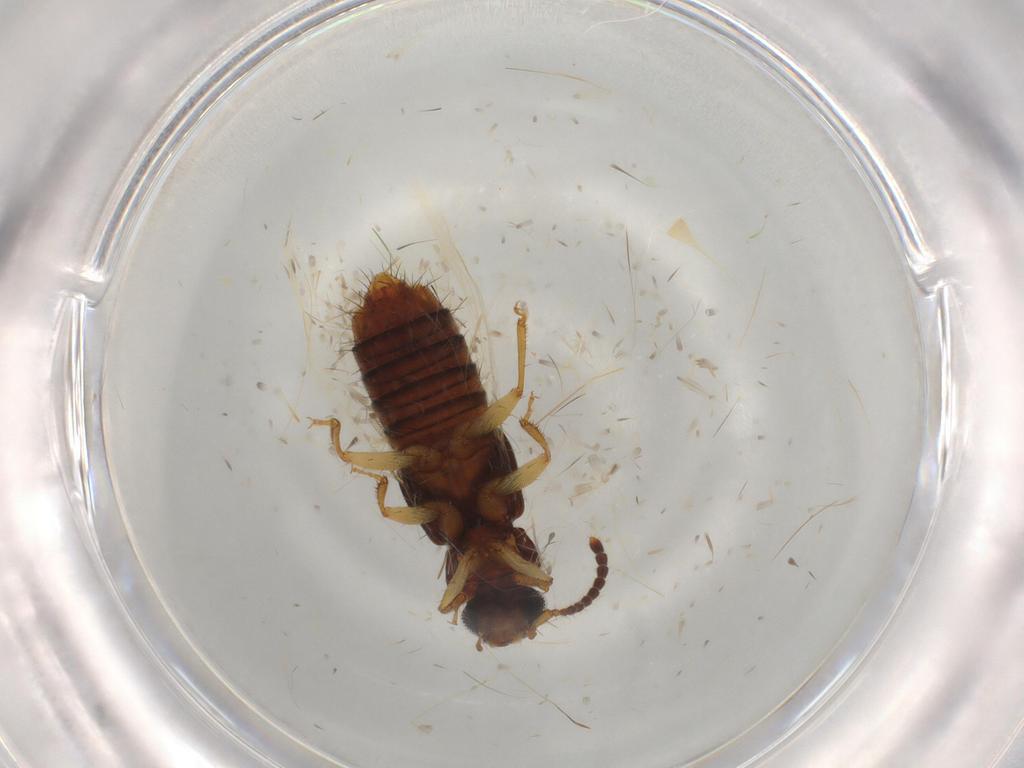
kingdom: Animalia
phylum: Arthropoda
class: Insecta
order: Coleoptera
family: Staphylinidae
